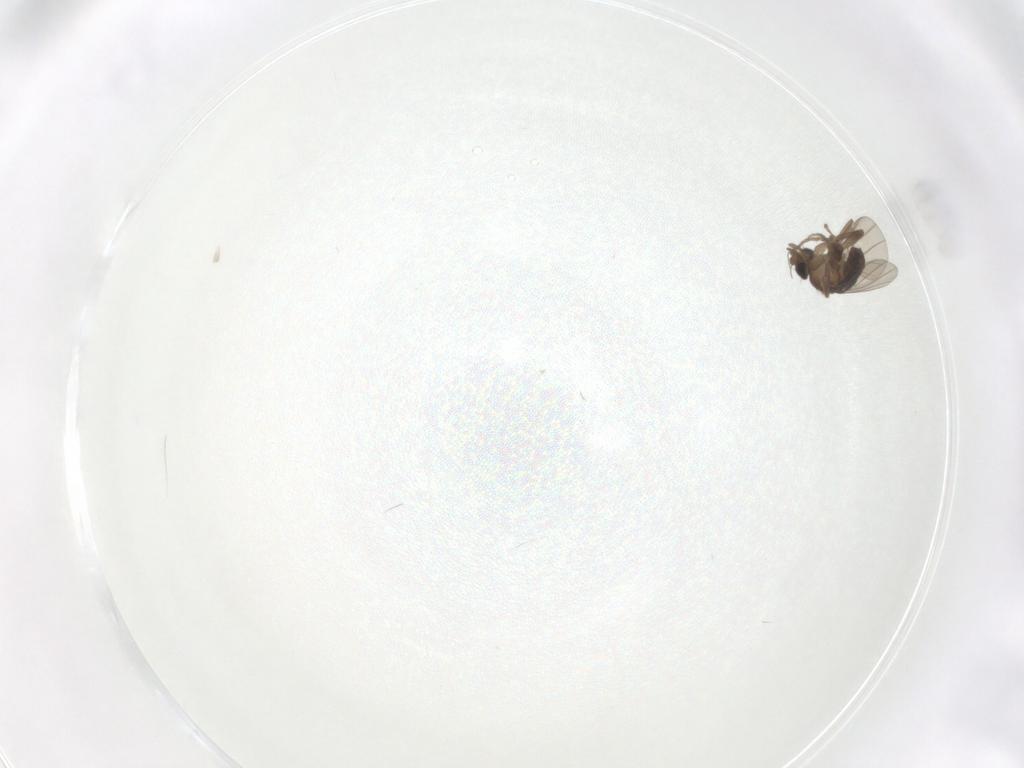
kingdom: Animalia
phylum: Arthropoda
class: Insecta
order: Diptera
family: Phoridae
